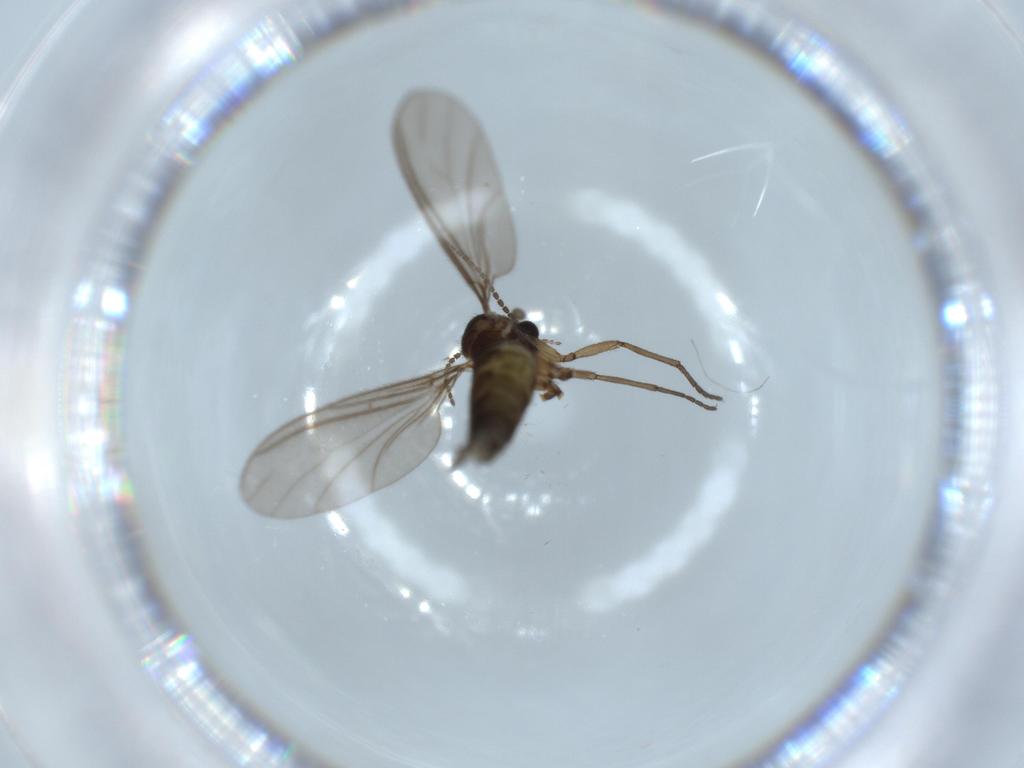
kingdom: Animalia
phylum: Arthropoda
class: Insecta
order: Diptera
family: Sciaridae
